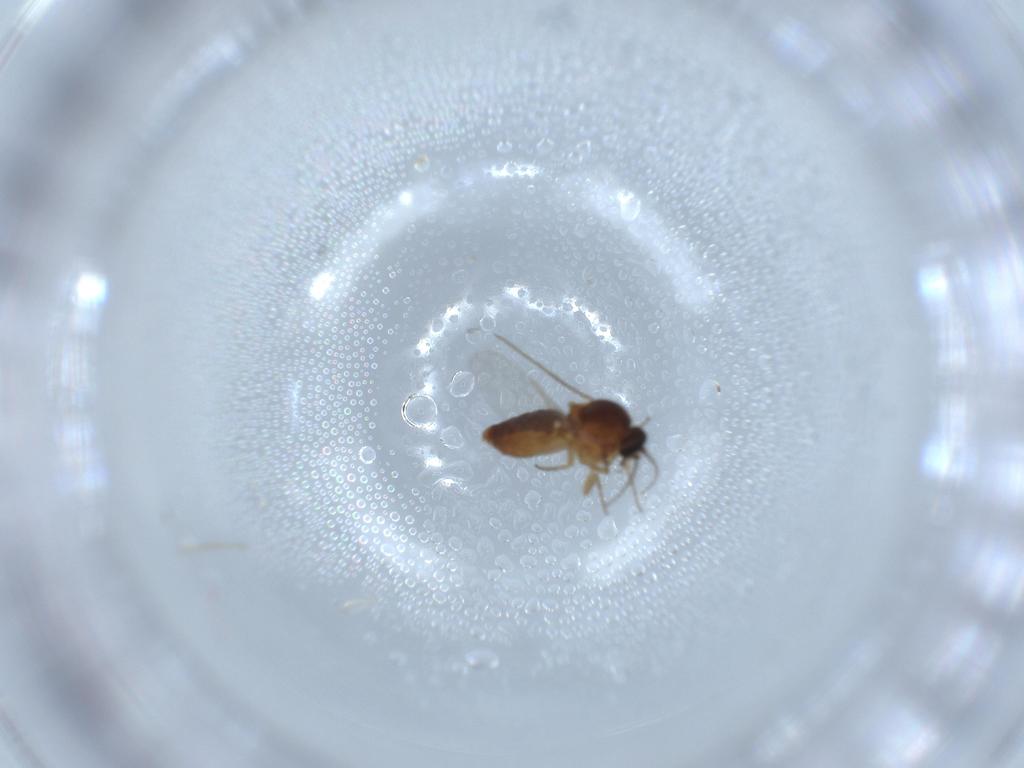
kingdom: Animalia
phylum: Arthropoda
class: Insecta
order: Diptera
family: Ceratopogonidae
